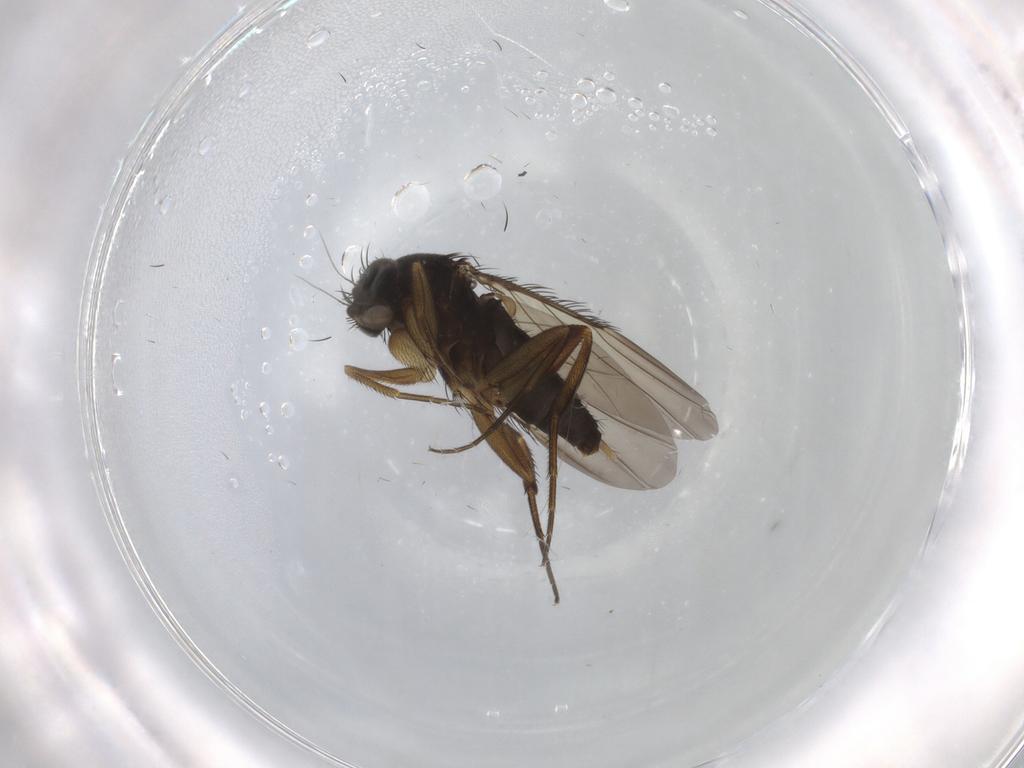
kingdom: Animalia
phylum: Arthropoda
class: Insecta
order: Diptera
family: Phoridae
